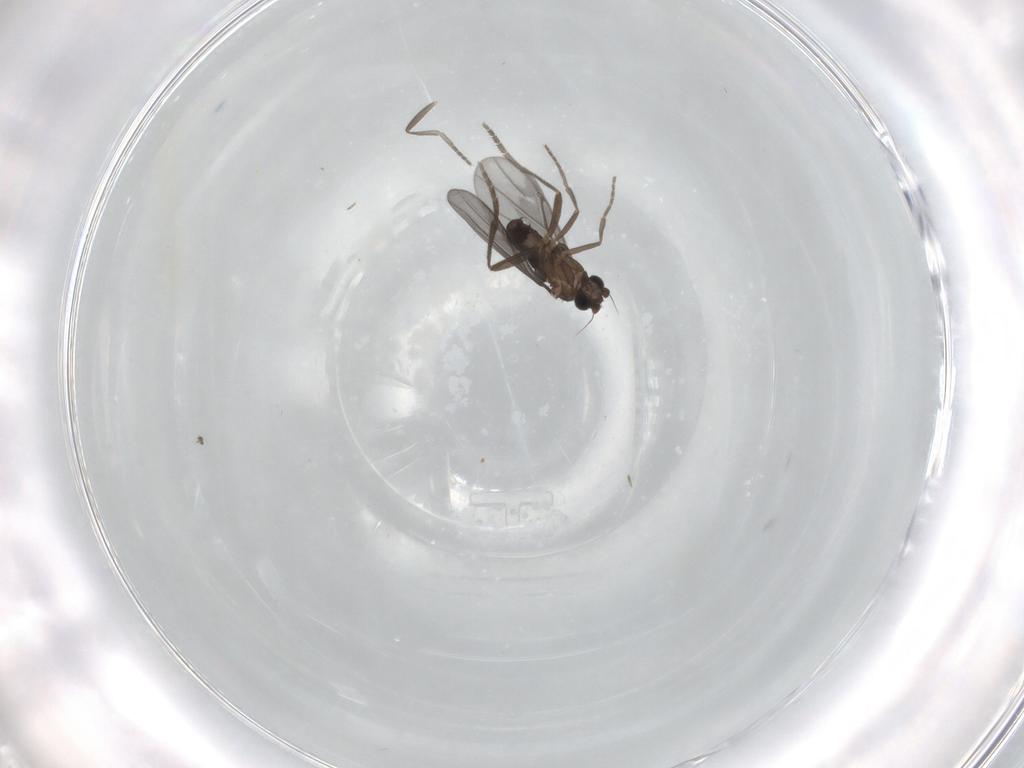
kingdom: Animalia
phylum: Arthropoda
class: Insecta
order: Diptera
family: Phoridae
